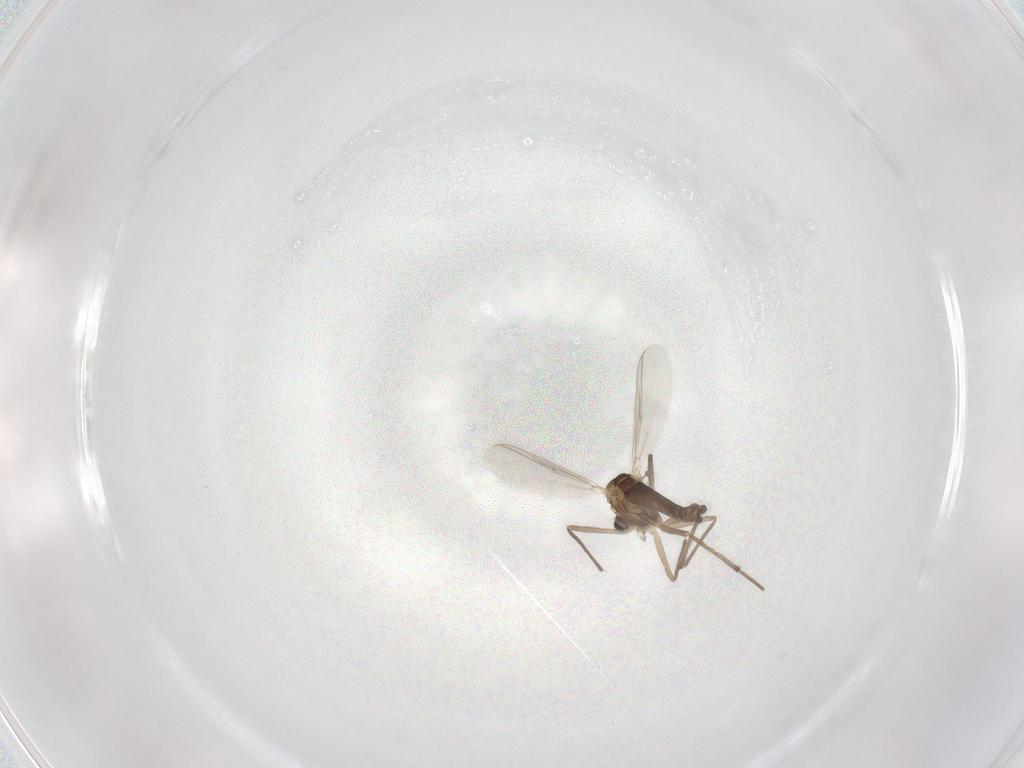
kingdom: Animalia
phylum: Arthropoda
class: Insecta
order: Diptera
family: Chironomidae
